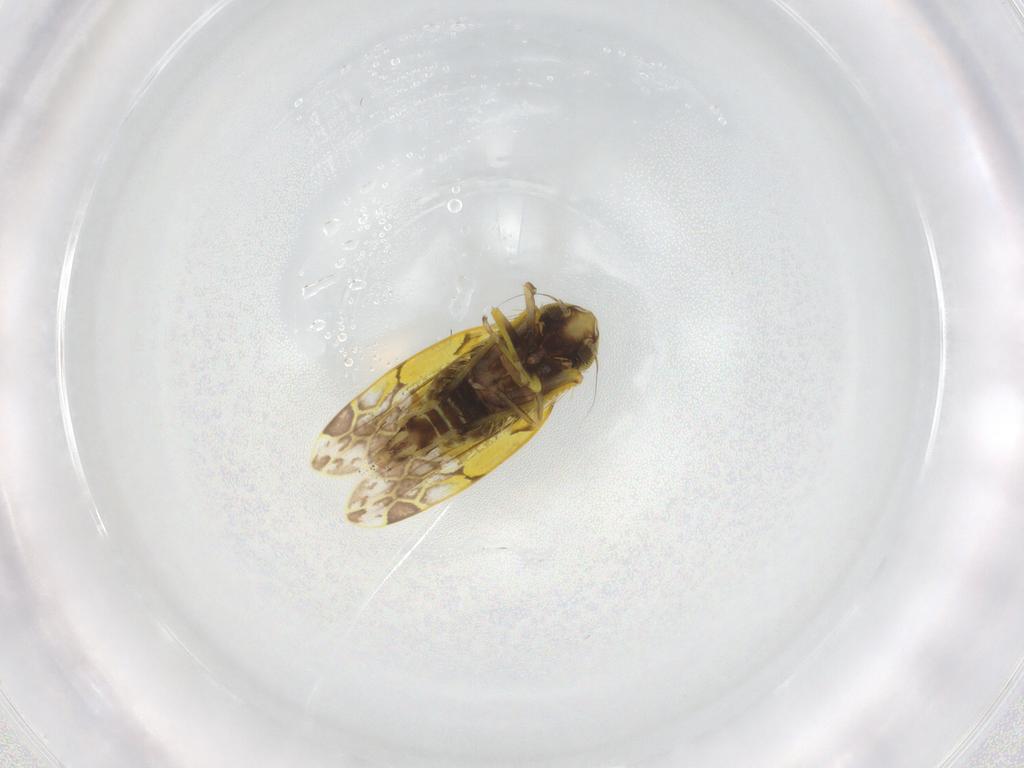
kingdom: Animalia
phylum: Arthropoda
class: Insecta
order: Hemiptera
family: Cicadellidae
